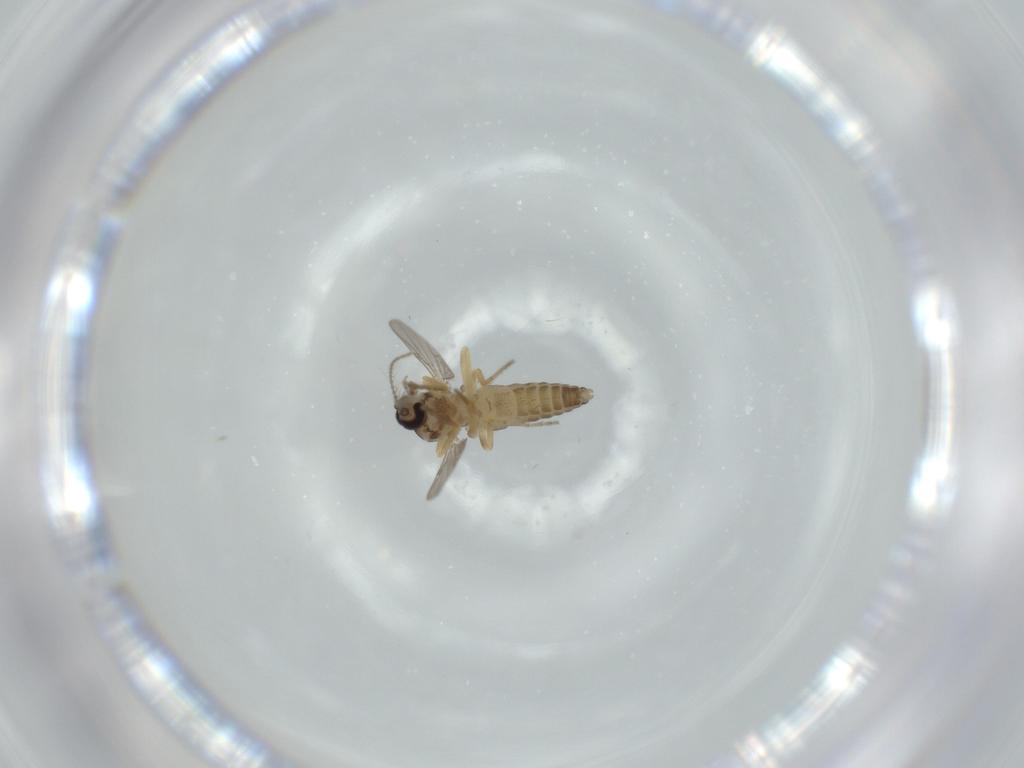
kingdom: Animalia
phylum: Arthropoda
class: Insecta
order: Diptera
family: Ceratopogonidae
